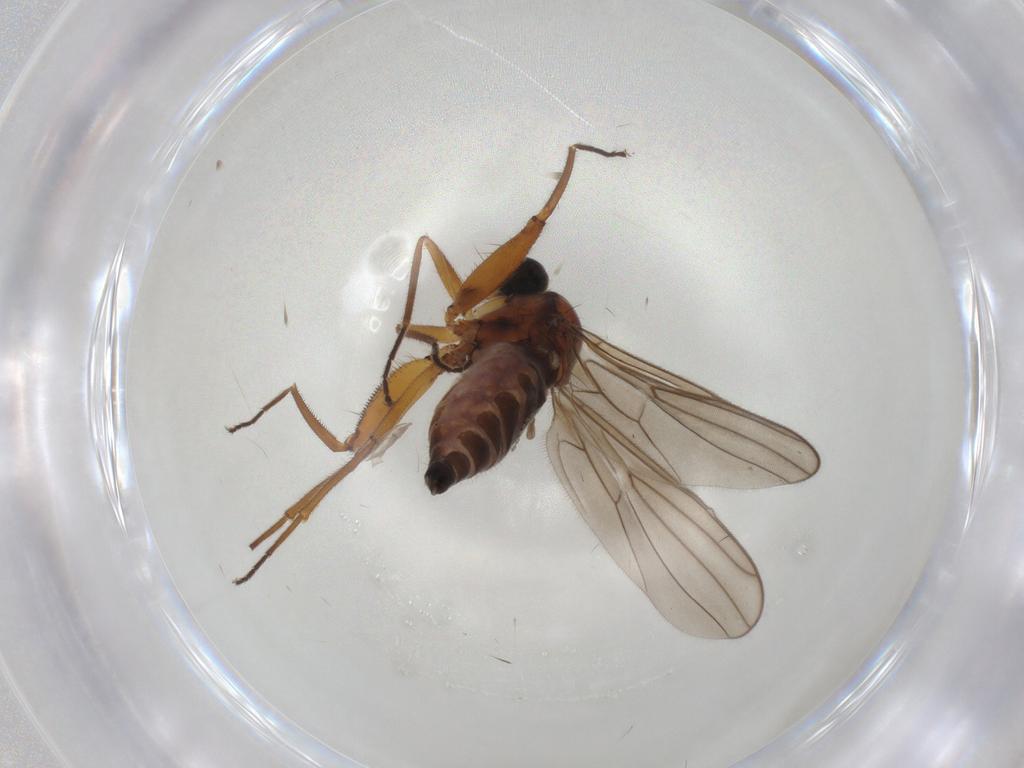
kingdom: Animalia
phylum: Arthropoda
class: Insecta
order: Diptera
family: Hybotidae
